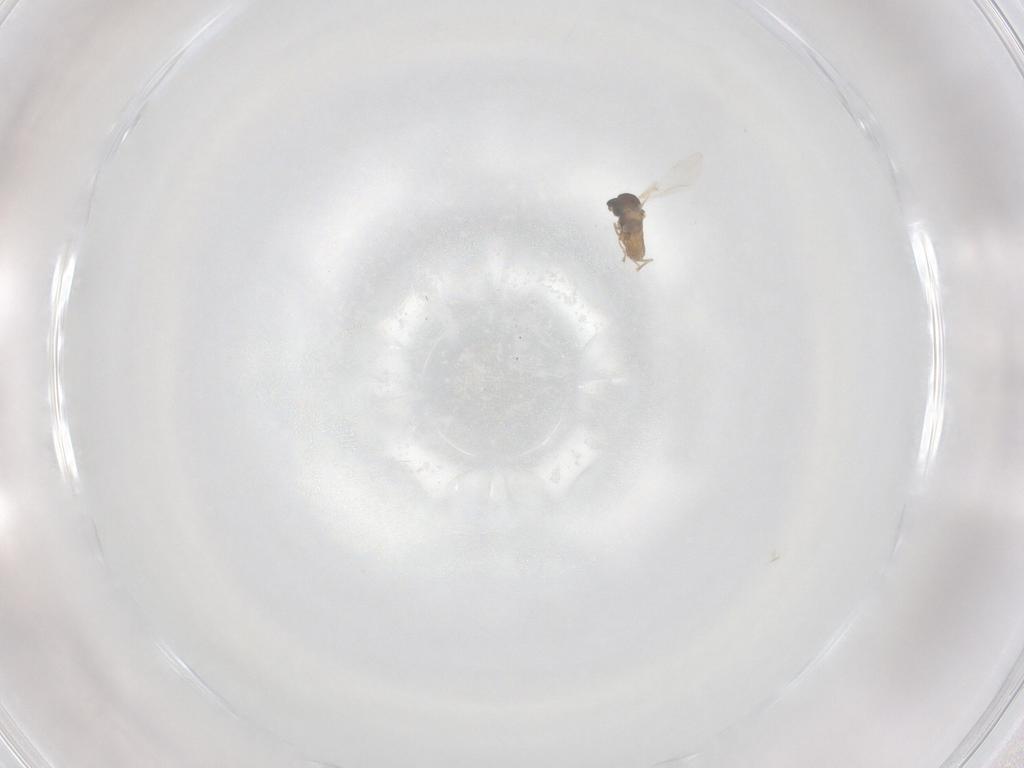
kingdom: Animalia
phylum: Arthropoda
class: Insecta
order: Diptera
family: Cecidomyiidae
